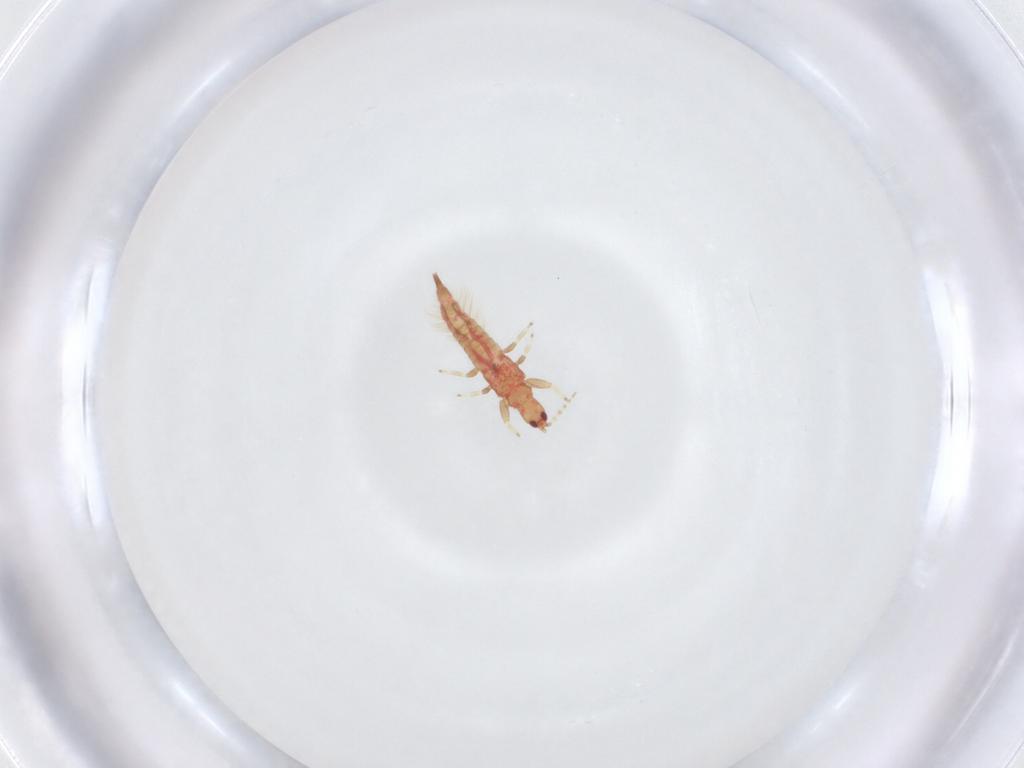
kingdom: Animalia
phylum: Arthropoda
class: Insecta
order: Thysanoptera
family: Phlaeothripidae
